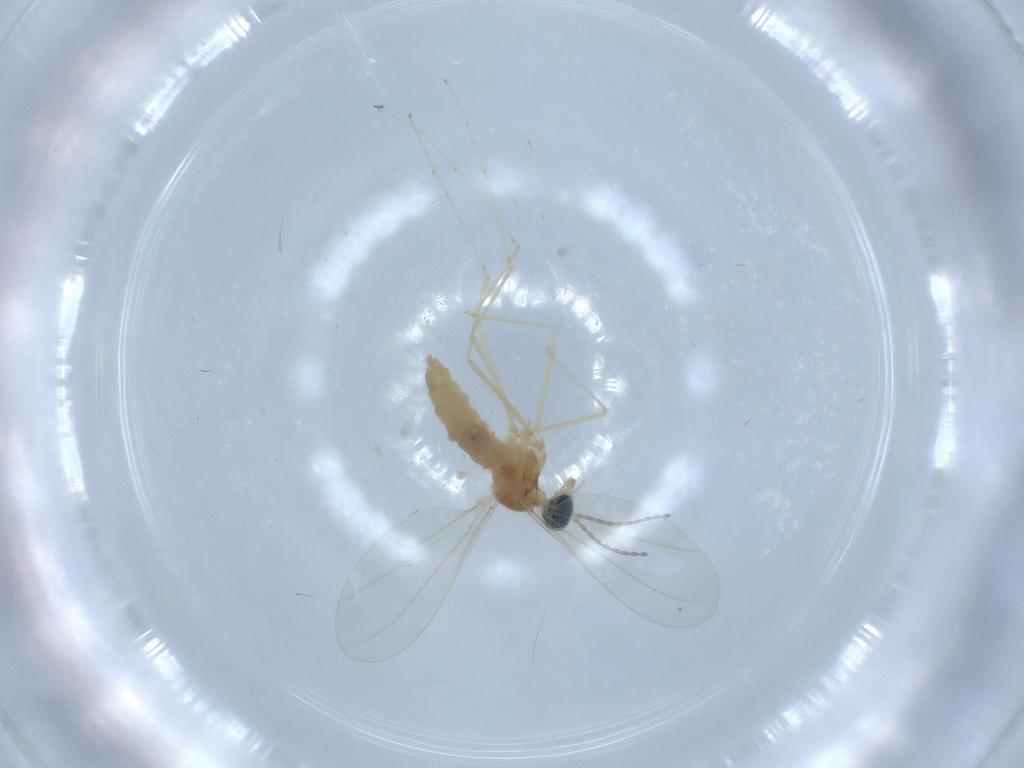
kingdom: Animalia
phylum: Arthropoda
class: Insecta
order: Diptera
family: Cecidomyiidae
